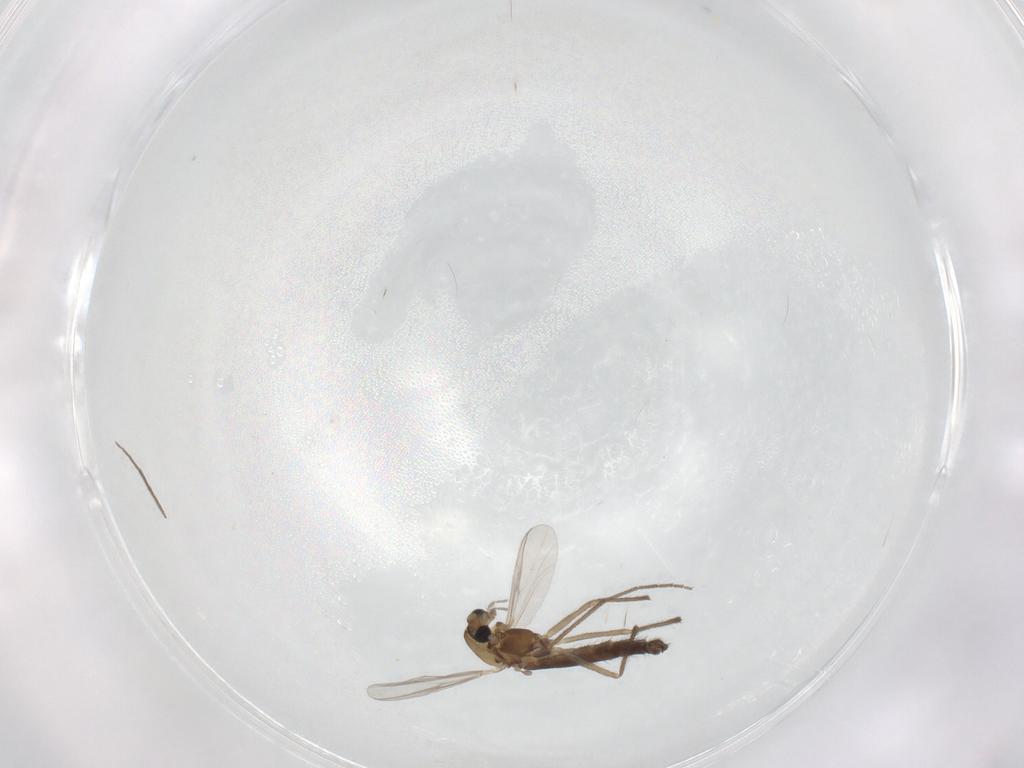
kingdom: Animalia
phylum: Arthropoda
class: Insecta
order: Diptera
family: Chironomidae
